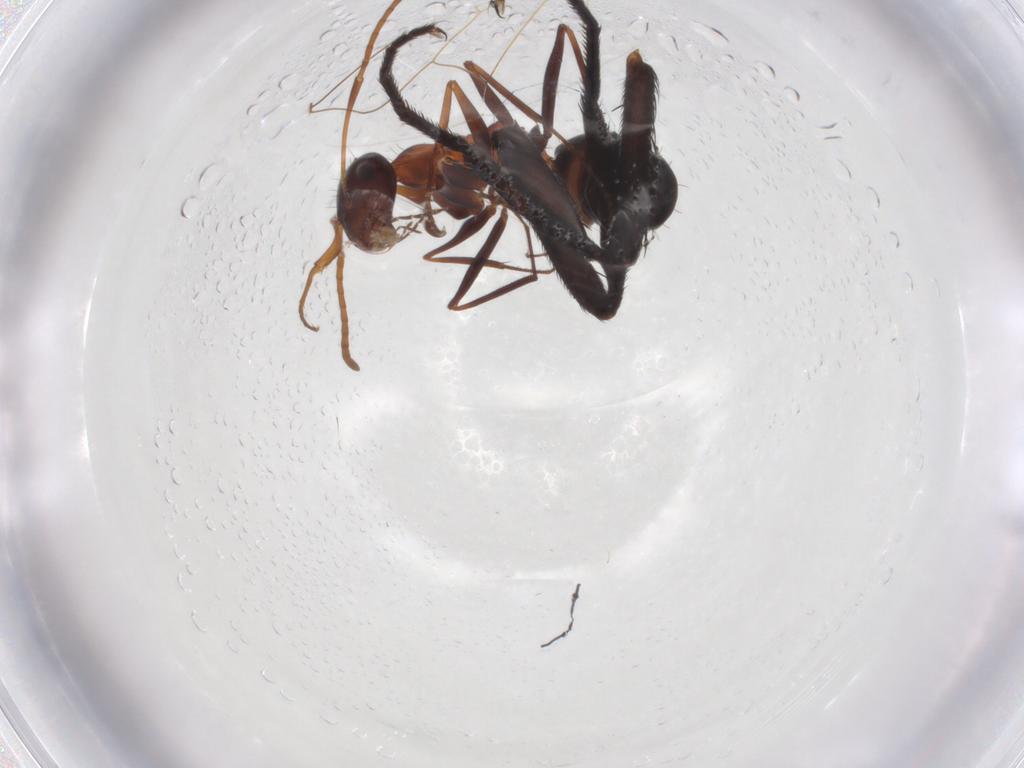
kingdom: Animalia
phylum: Arthropoda
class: Insecta
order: Hymenoptera
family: Formicidae
